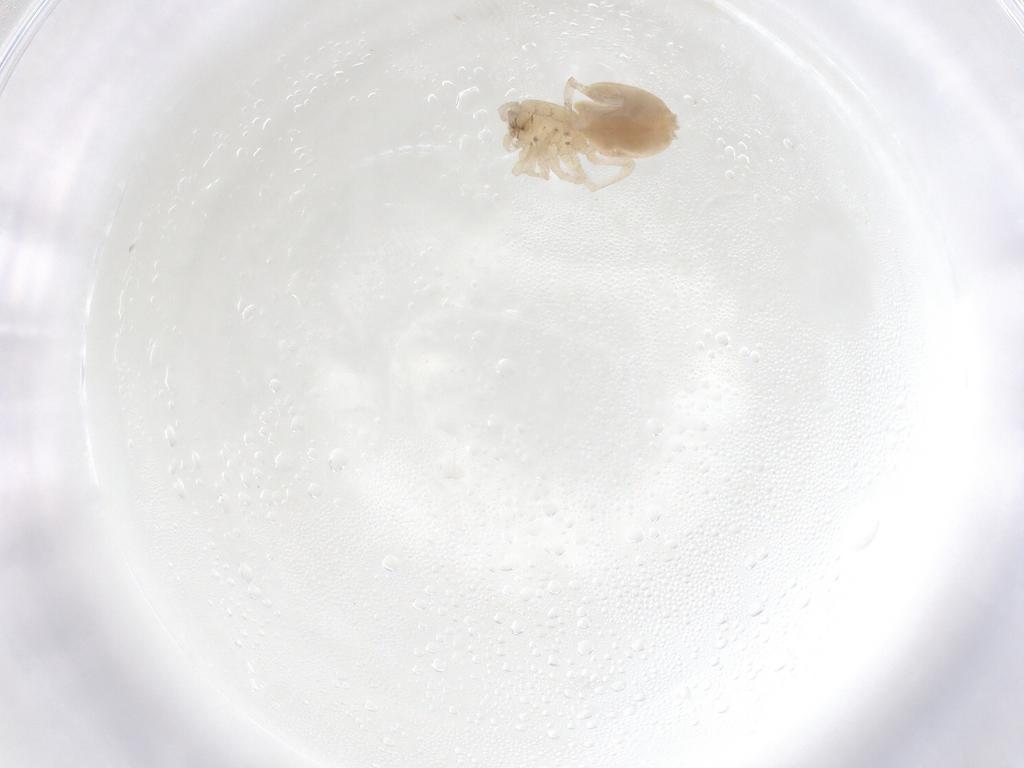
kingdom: Animalia
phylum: Arthropoda
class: Arachnida
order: Araneae
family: Gnaphosidae
